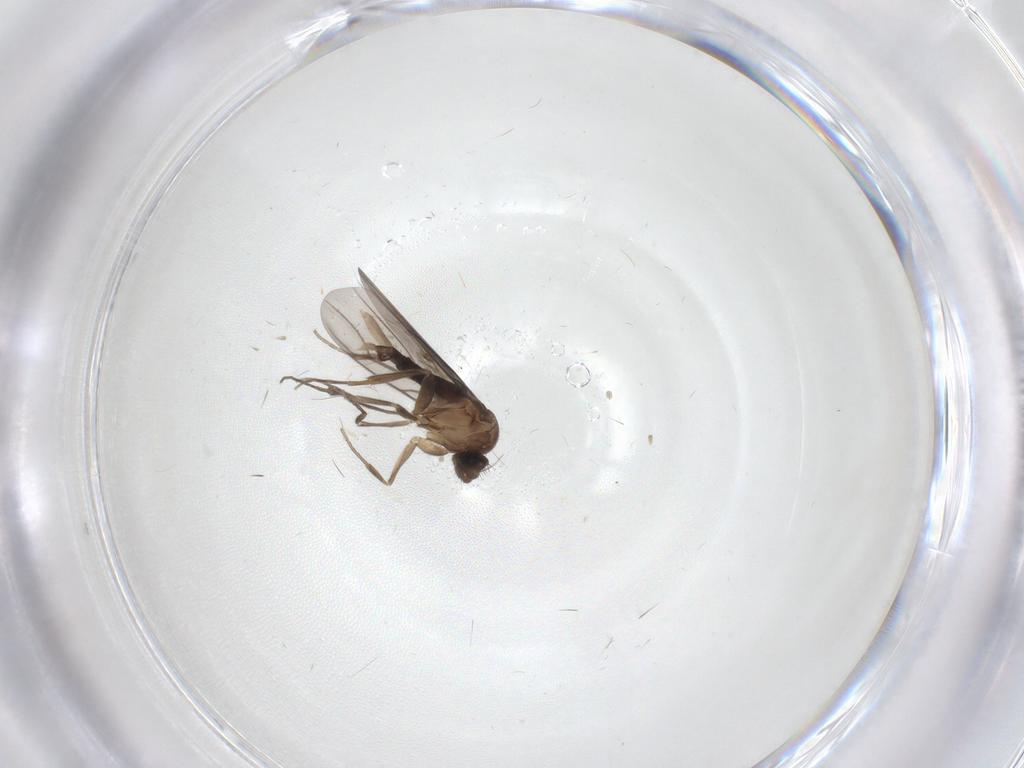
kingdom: Animalia
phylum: Arthropoda
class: Insecta
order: Diptera
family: Phoridae
